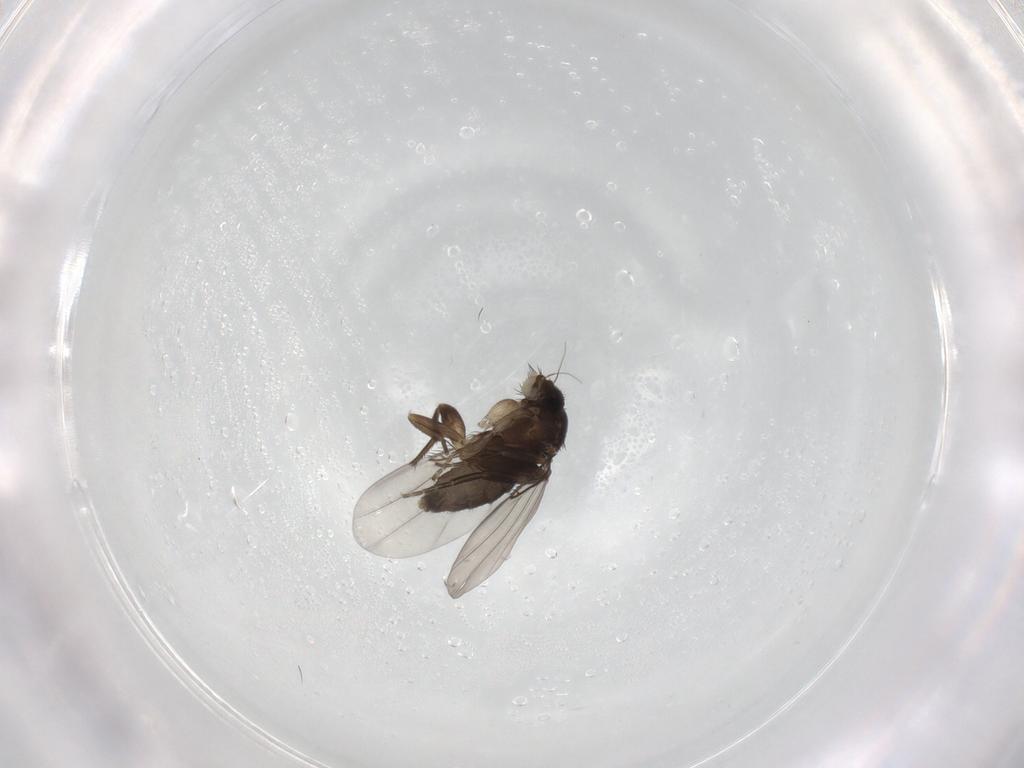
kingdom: Animalia
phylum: Arthropoda
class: Insecta
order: Diptera
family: Phoridae
